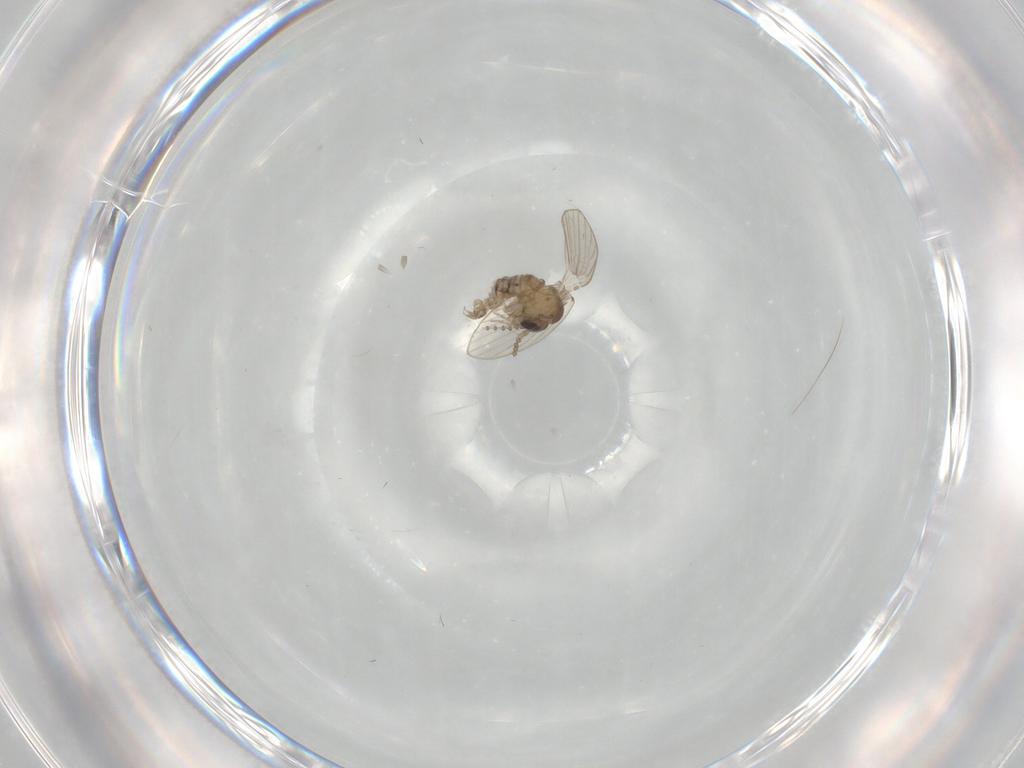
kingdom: Animalia
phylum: Arthropoda
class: Insecta
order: Diptera
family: Psychodidae
